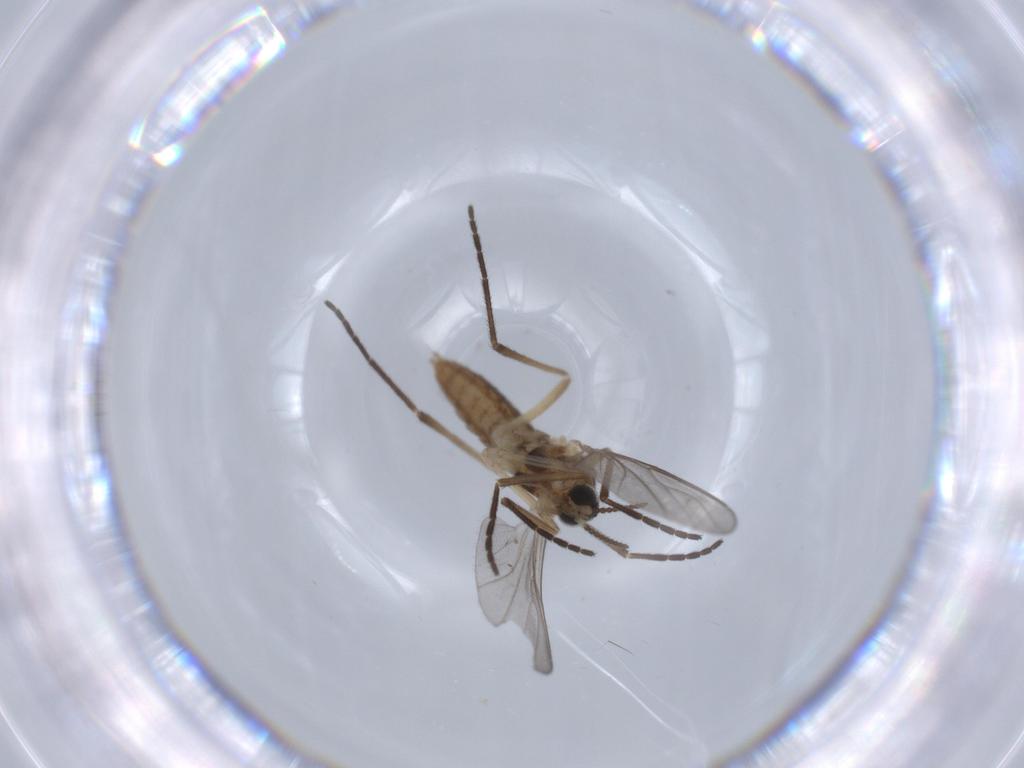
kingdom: Animalia
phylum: Arthropoda
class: Insecta
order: Diptera
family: Cecidomyiidae
